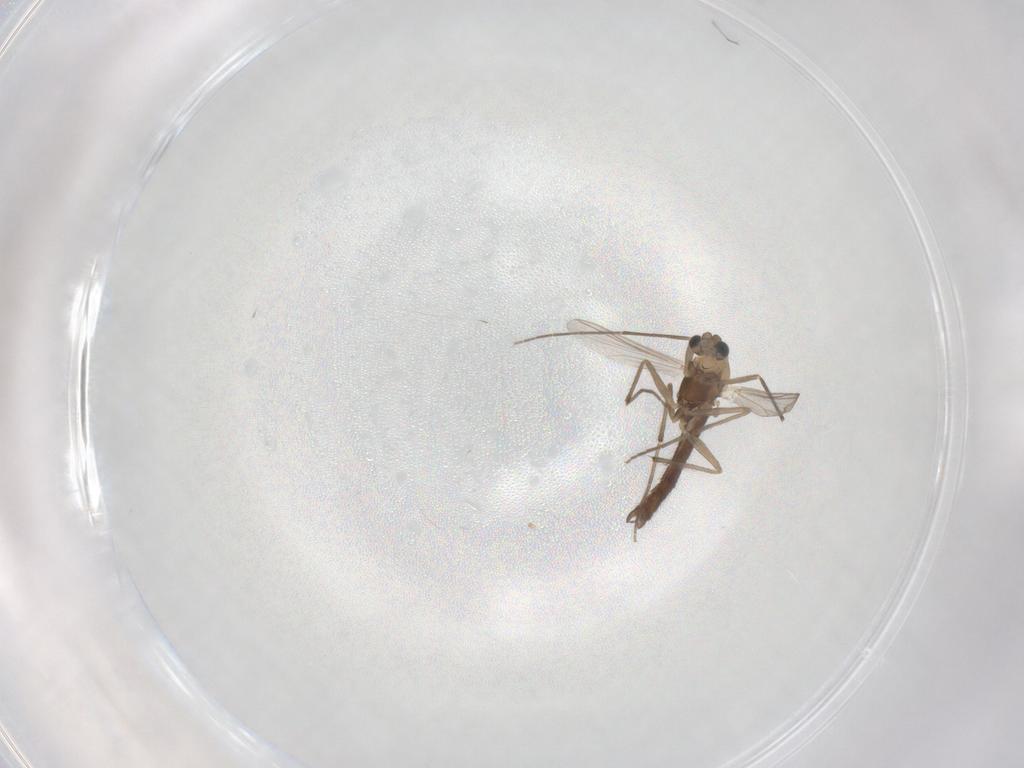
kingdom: Animalia
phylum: Arthropoda
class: Insecta
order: Diptera
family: Chironomidae
